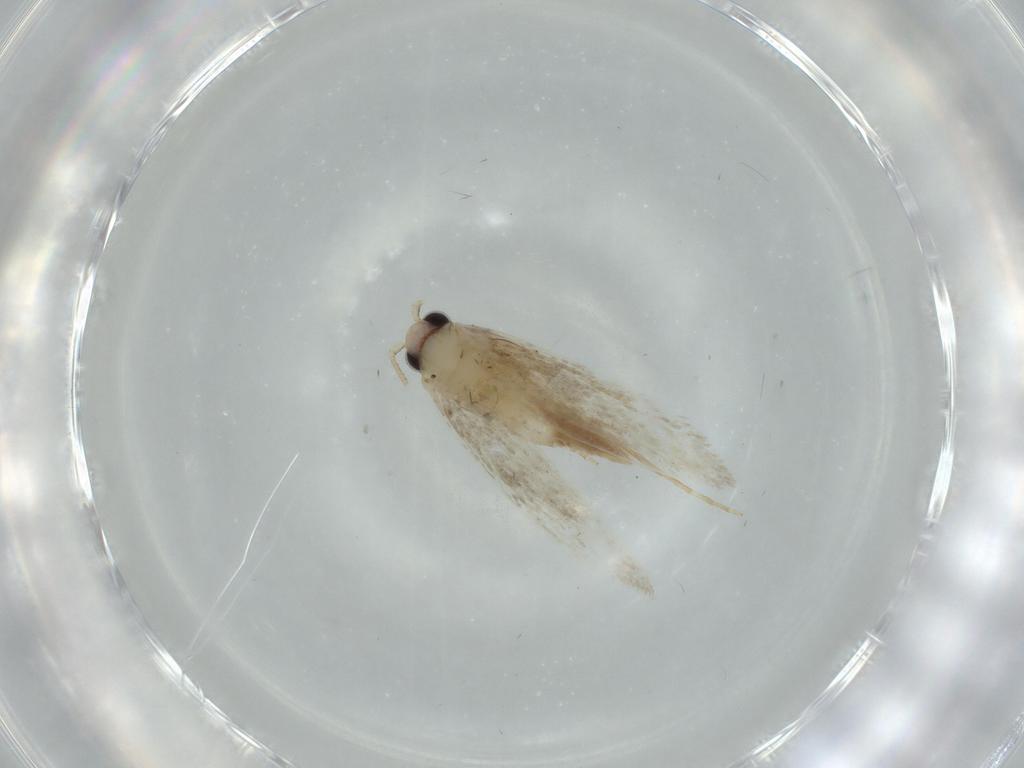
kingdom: Animalia
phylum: Arthropoda
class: Insecta
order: Lepidoptera
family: Tineidae
